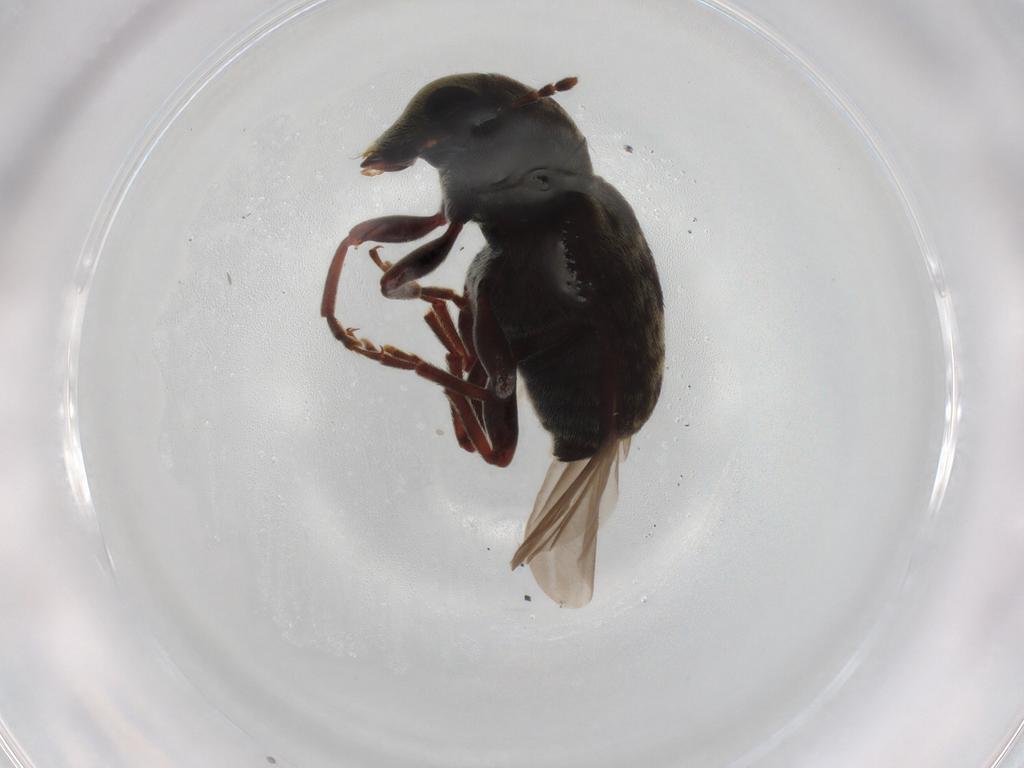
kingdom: Animalia
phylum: Arthropoda
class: Insecta
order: Coleoptera
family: Anthribidae
